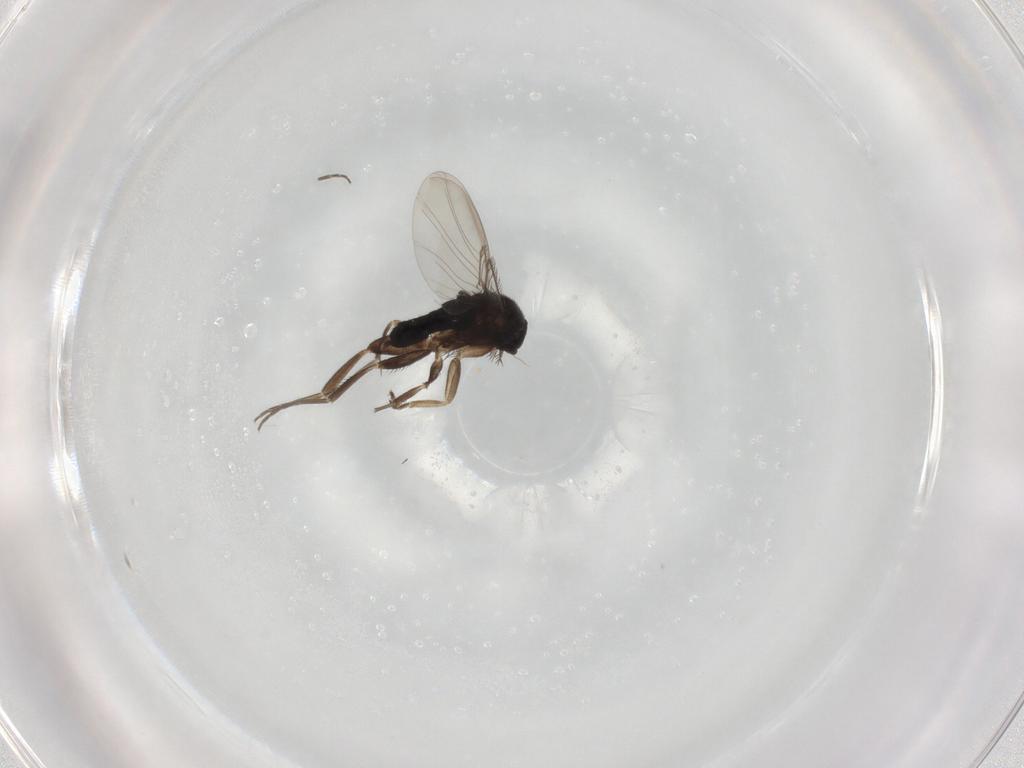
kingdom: Animalia
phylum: Arthropoda
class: Insecta
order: Diptera
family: Phoridae
